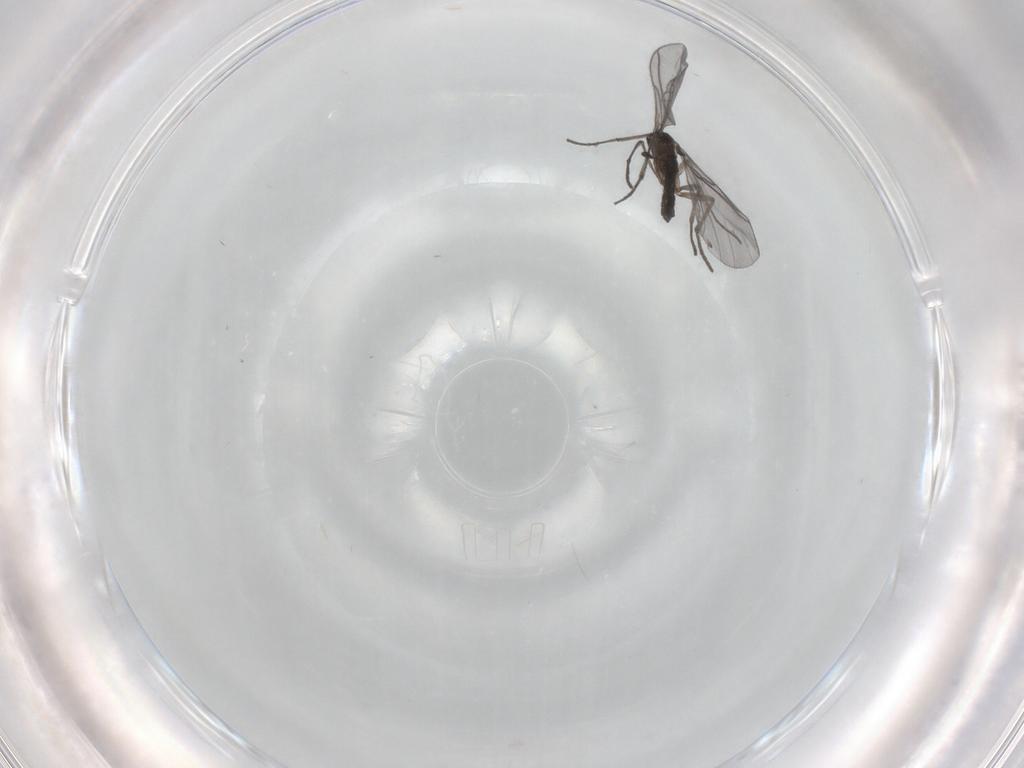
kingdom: Animalia
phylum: Arthropoda
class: Insecta
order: Diptera
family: Sciaridae
